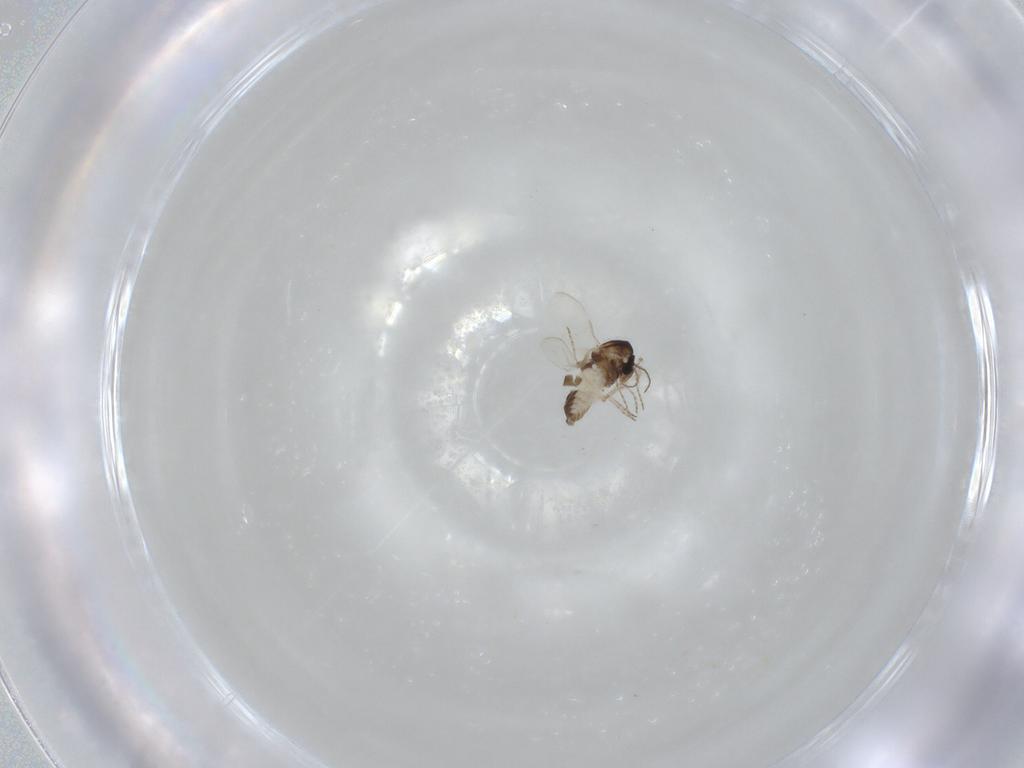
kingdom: Animalia
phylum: Arthropoda
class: Insecta
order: Diptera
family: Ceratopogonidae
